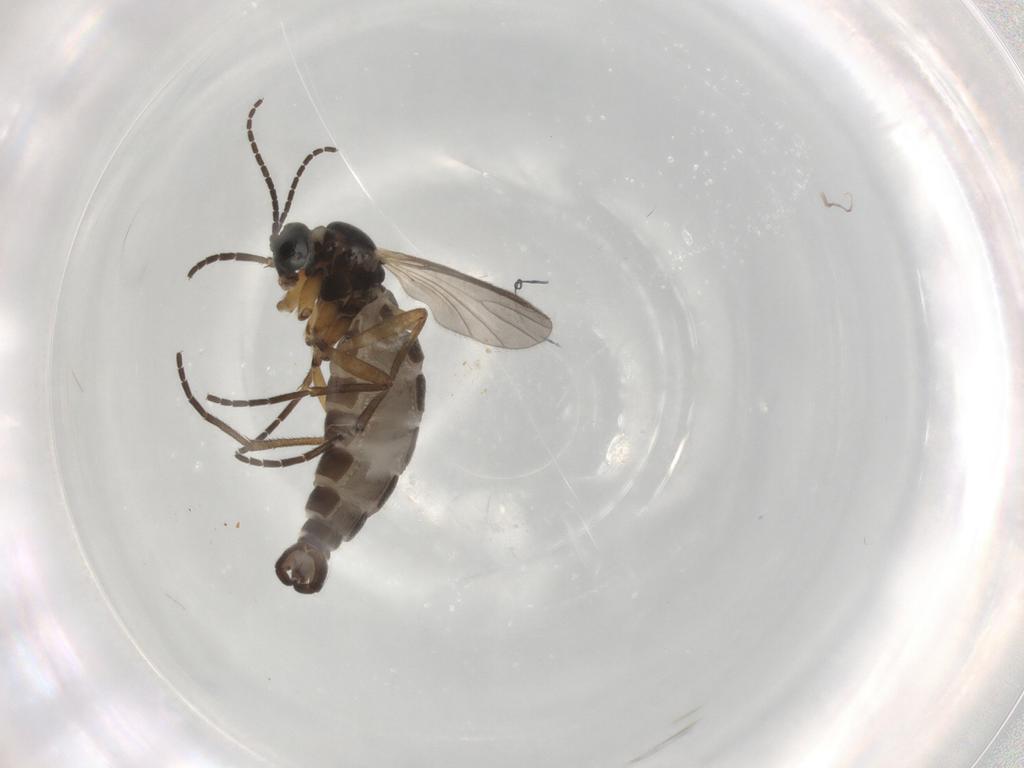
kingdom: Animalia
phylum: Arthropoda
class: Insecta
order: Diptera
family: Sciaridae
